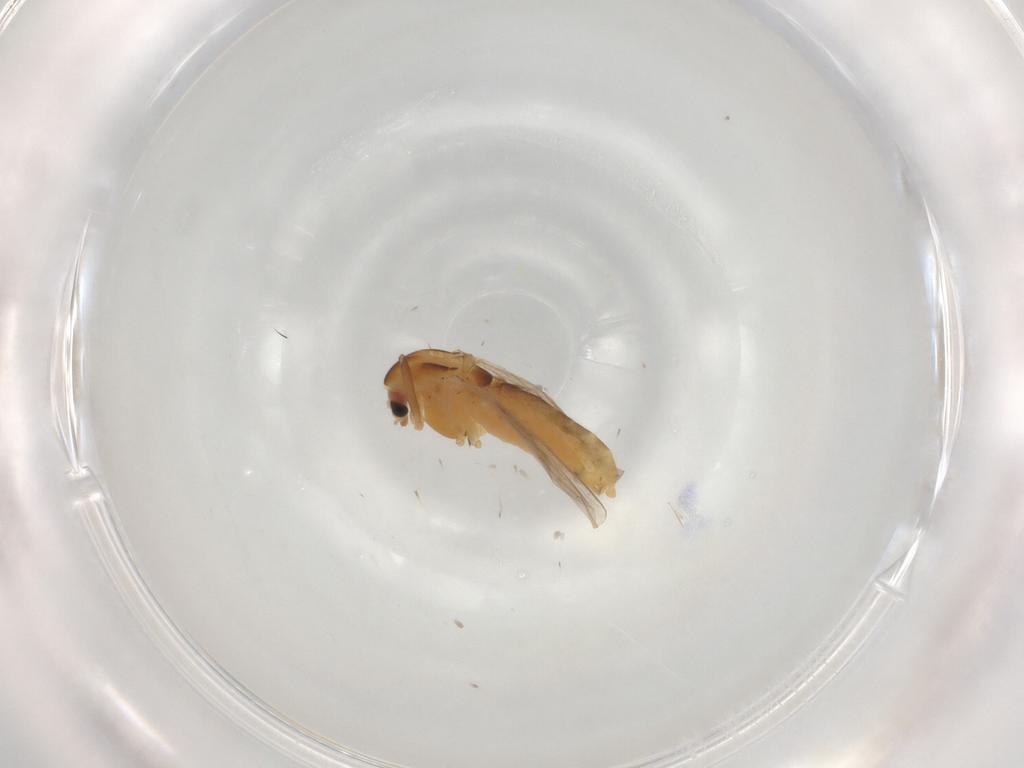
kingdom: Animalia
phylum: Arthropoda
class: Insecta
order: Diptera
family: Chironomidae
